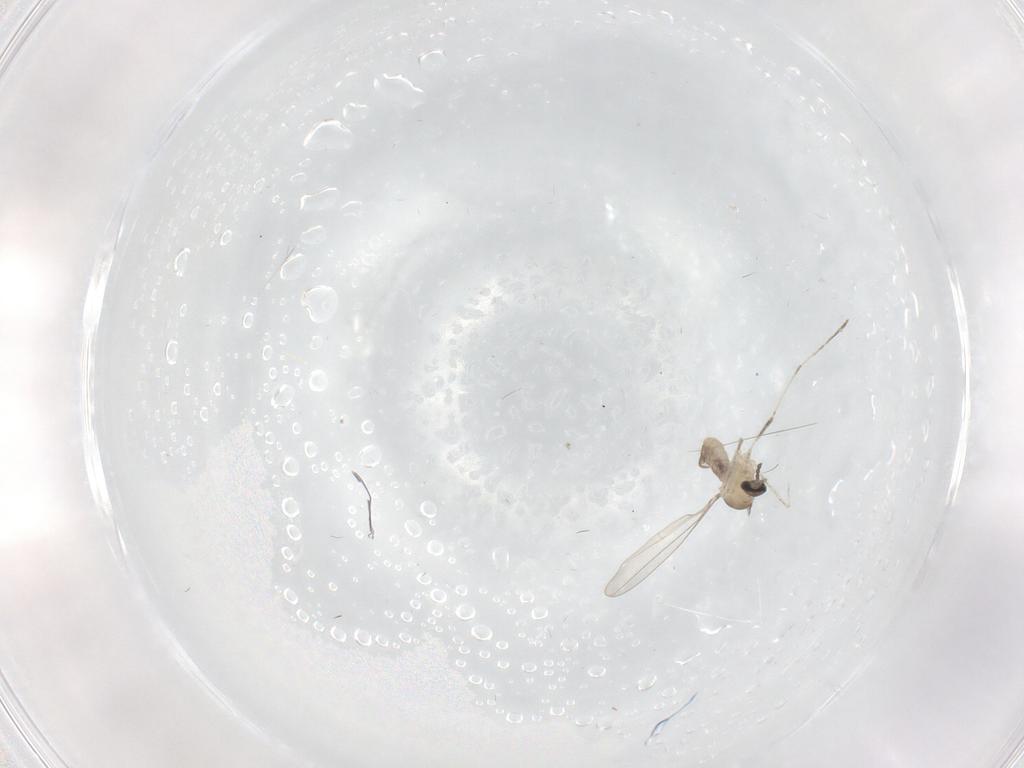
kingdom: Animalia
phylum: Arthropoda
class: Insecta
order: Diptera
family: Cecidomyiidae
